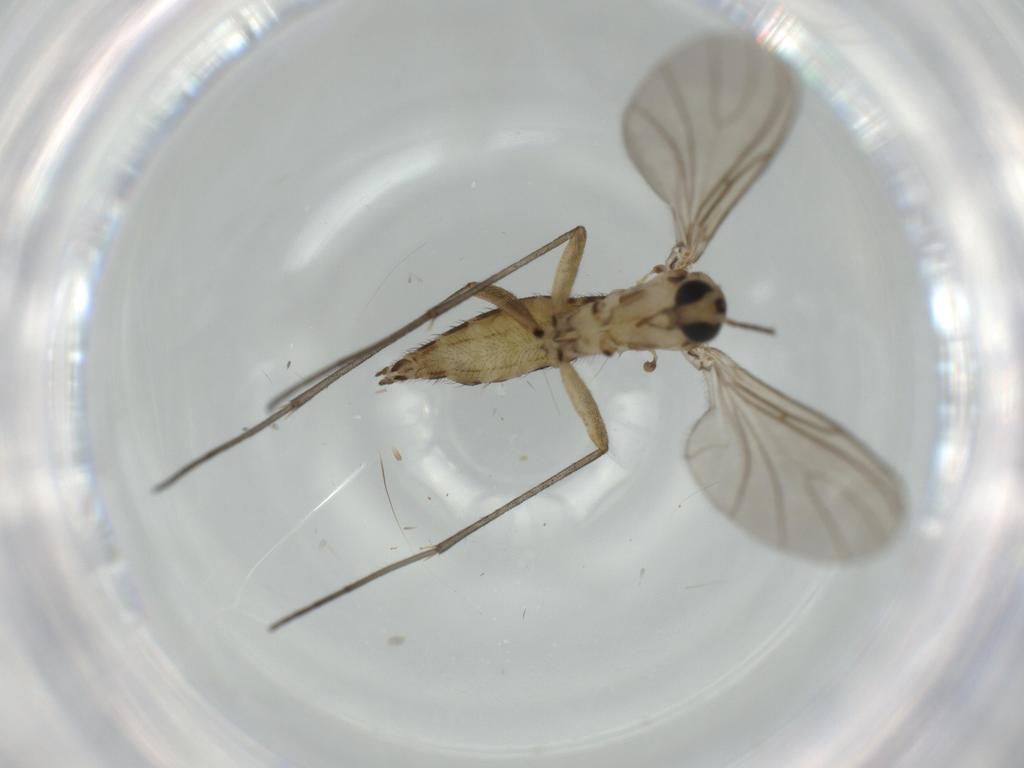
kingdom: Animalia
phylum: Arthropoda
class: Insecta
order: Diptera
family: Sciaridae
